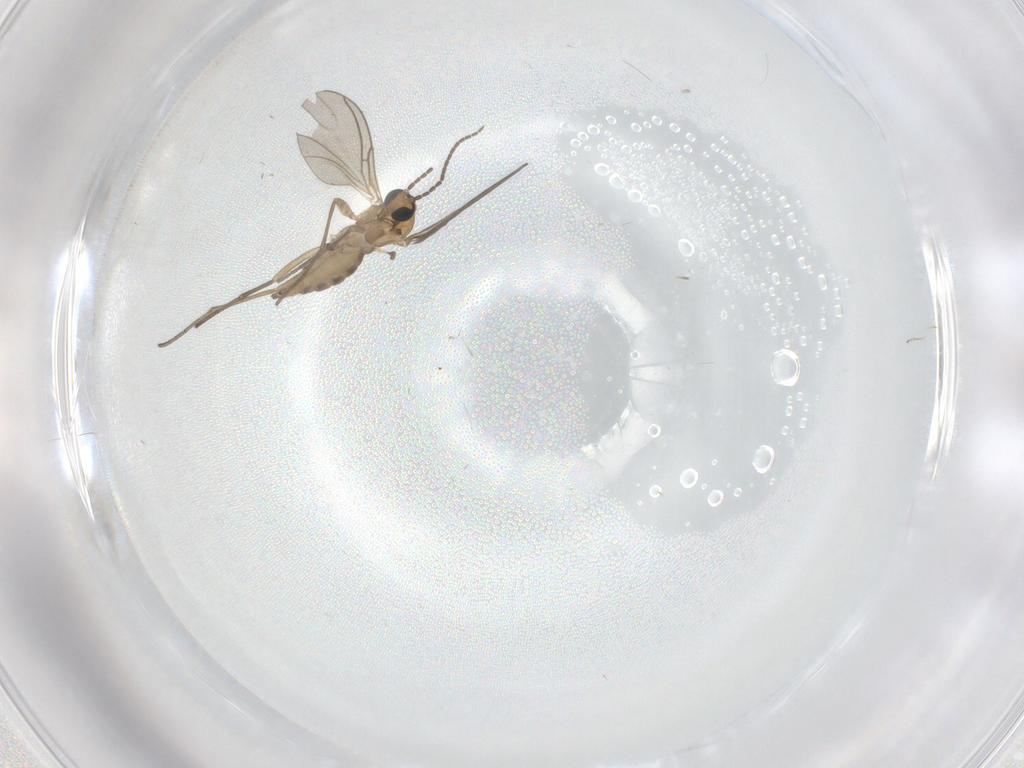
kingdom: Animalia
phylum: Arthropoda
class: Insecta
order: Diptera
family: Sciaridae
